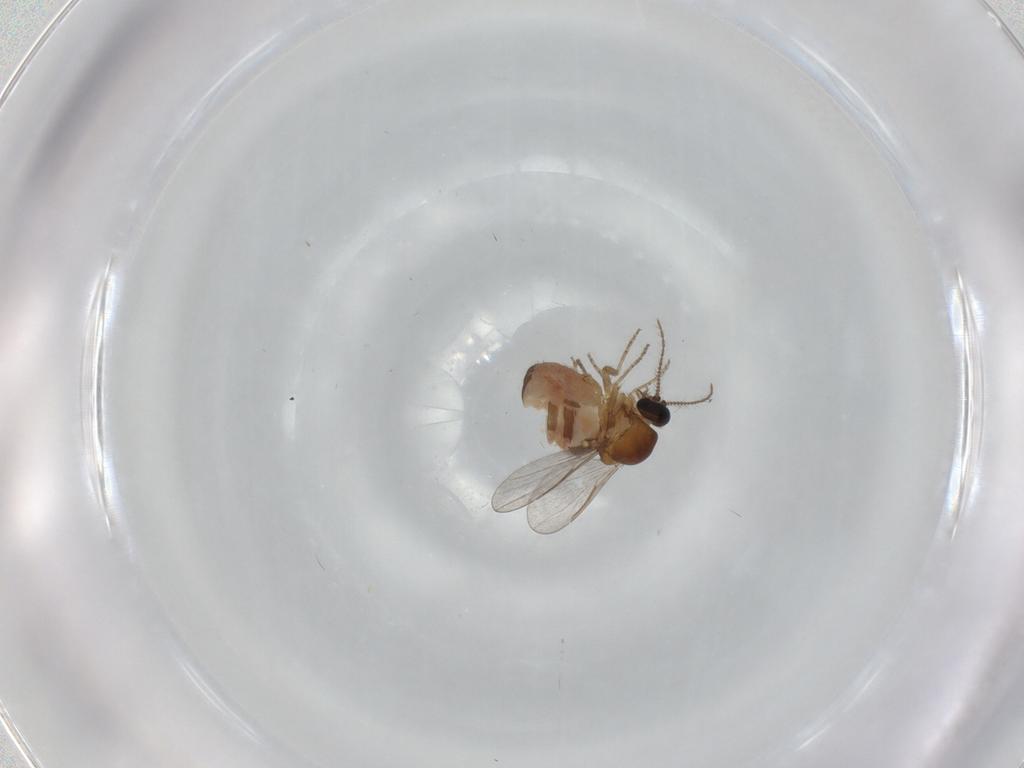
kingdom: Animalia
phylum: Arthropoda
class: Insecta
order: Diptera
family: Ceratopogonidae
